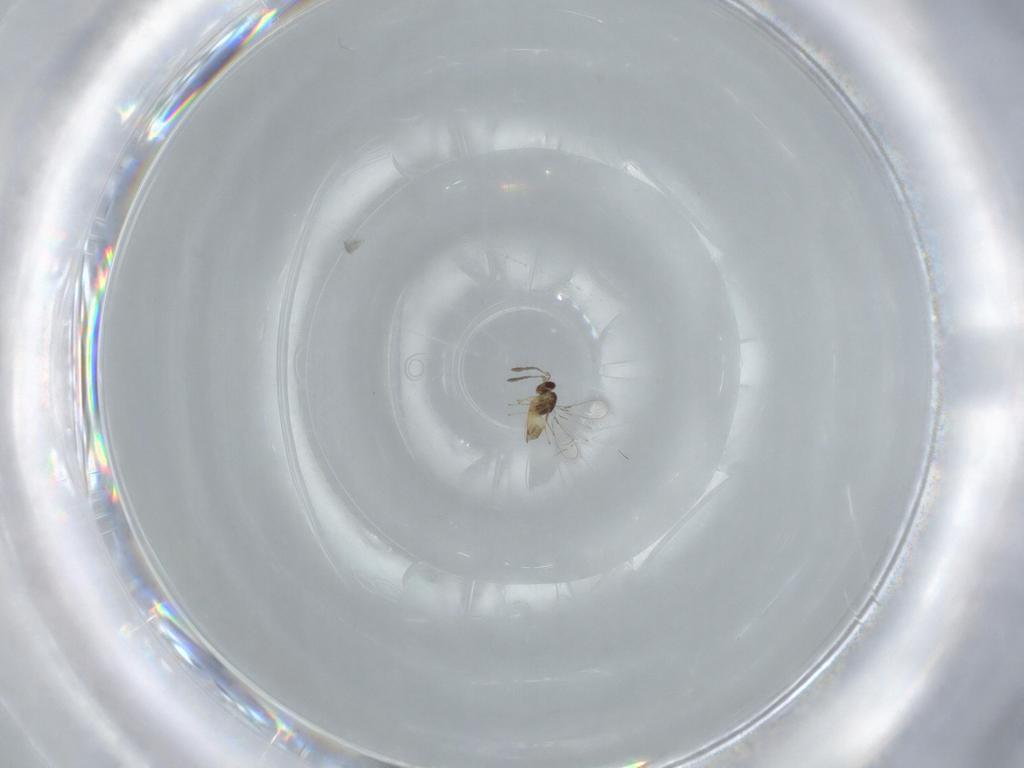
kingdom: Animalia
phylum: Arthropoda
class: Insecta
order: Hymenoptera
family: Mymaridae
